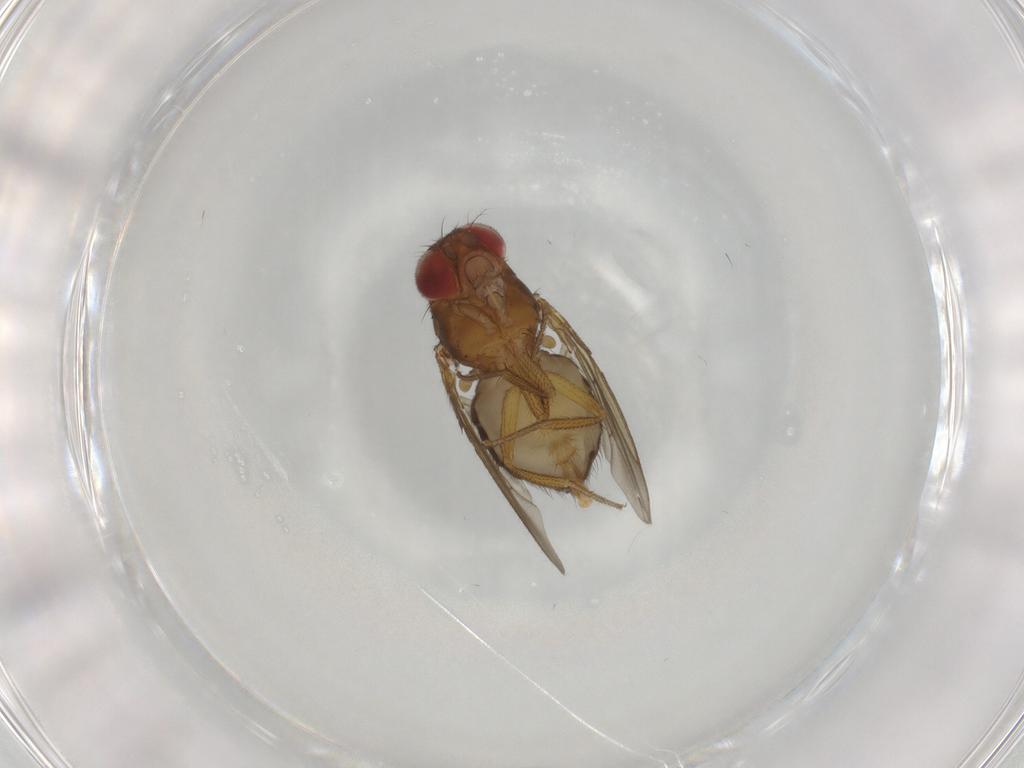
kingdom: Animalia
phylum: Arthropoda
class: Insecta
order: Diptera
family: Drosophilidae
